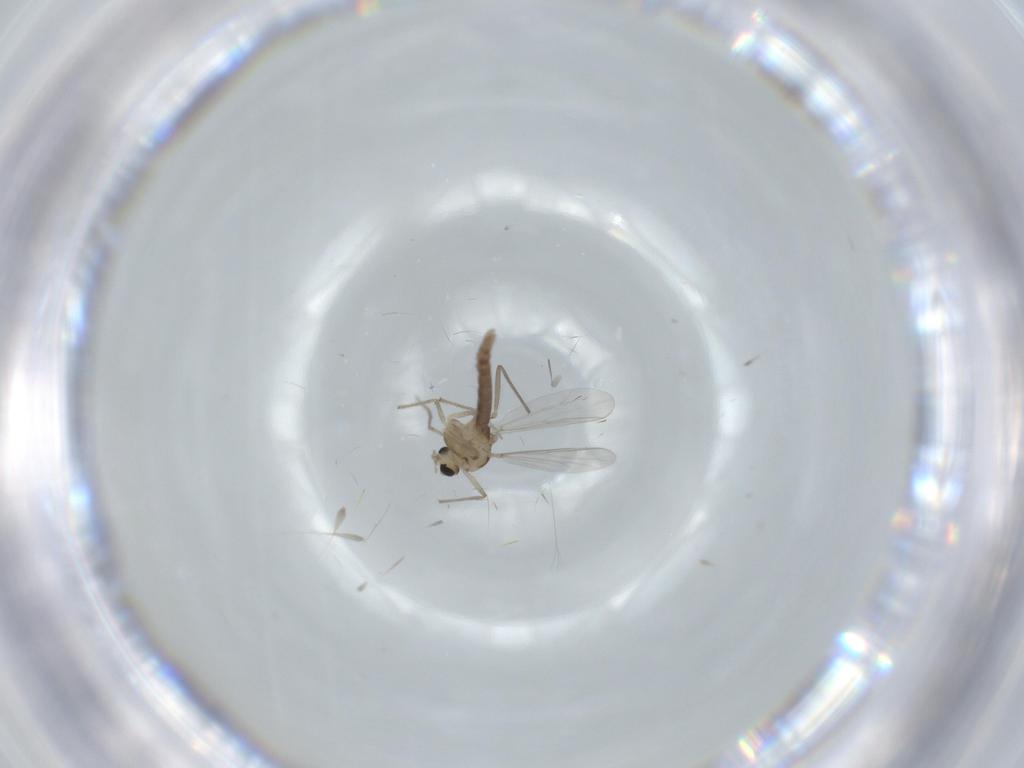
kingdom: Animalia
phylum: Arthropoda
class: Insecta
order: Diptera
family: Chironomidae
